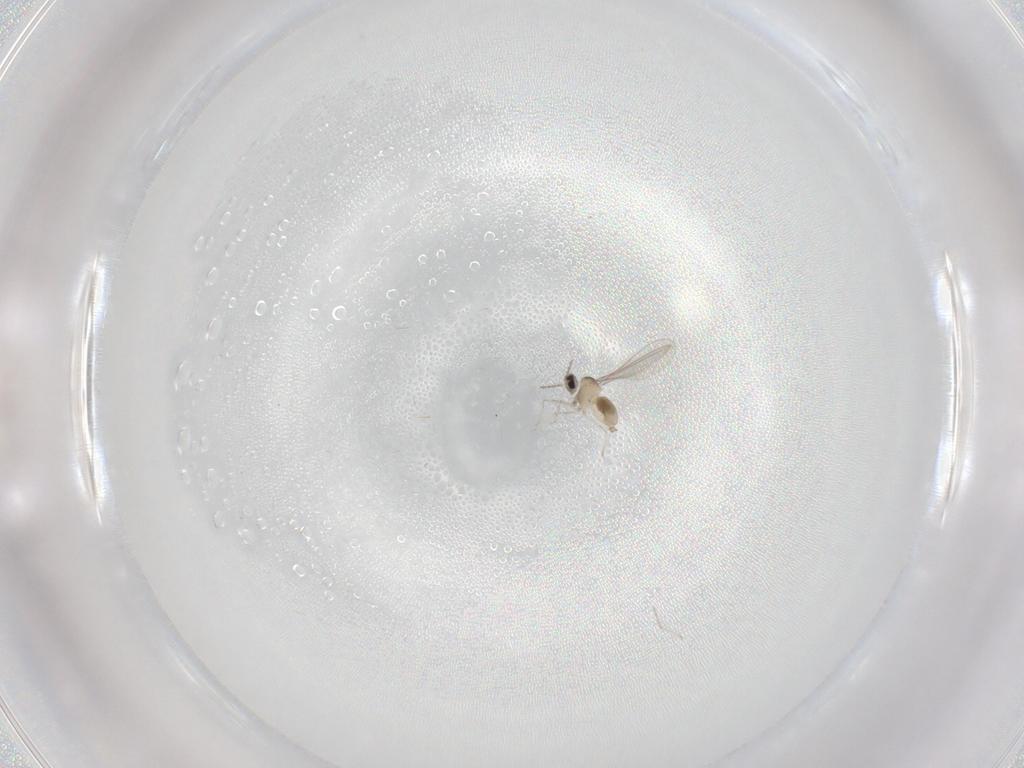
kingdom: Animalia
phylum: Arthropoda
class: Insecta
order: Diptera
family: Cecidomyiidae
